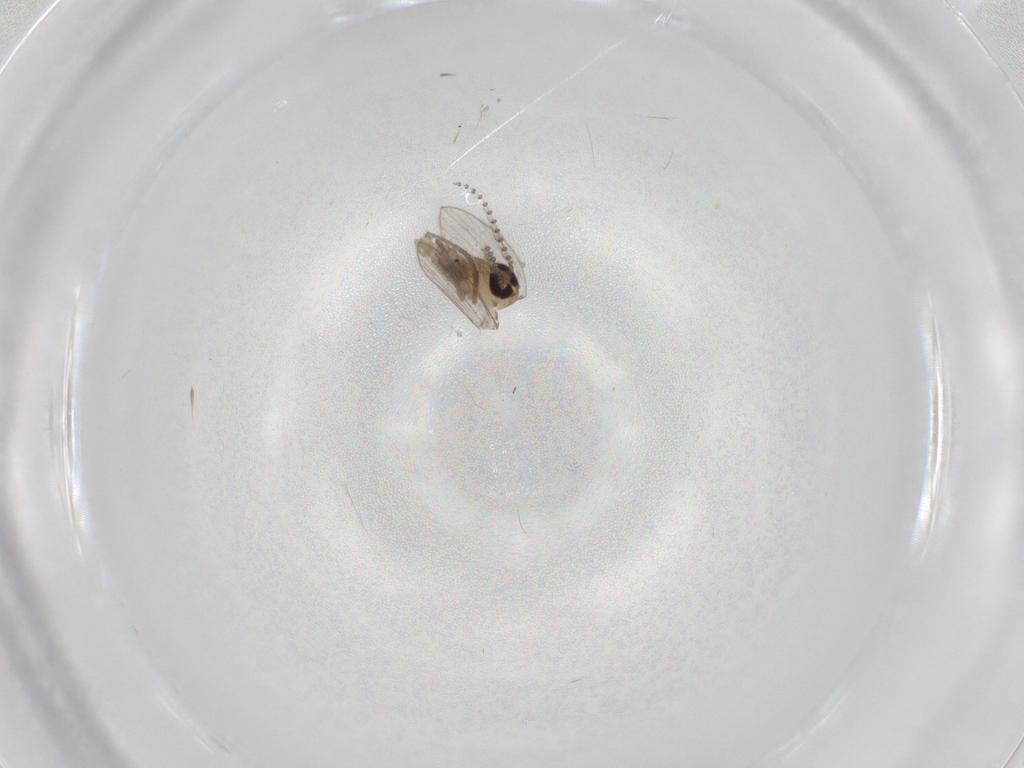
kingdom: Animalia
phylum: Arthropoda
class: Insecta
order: Diptera
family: Psychodidae
